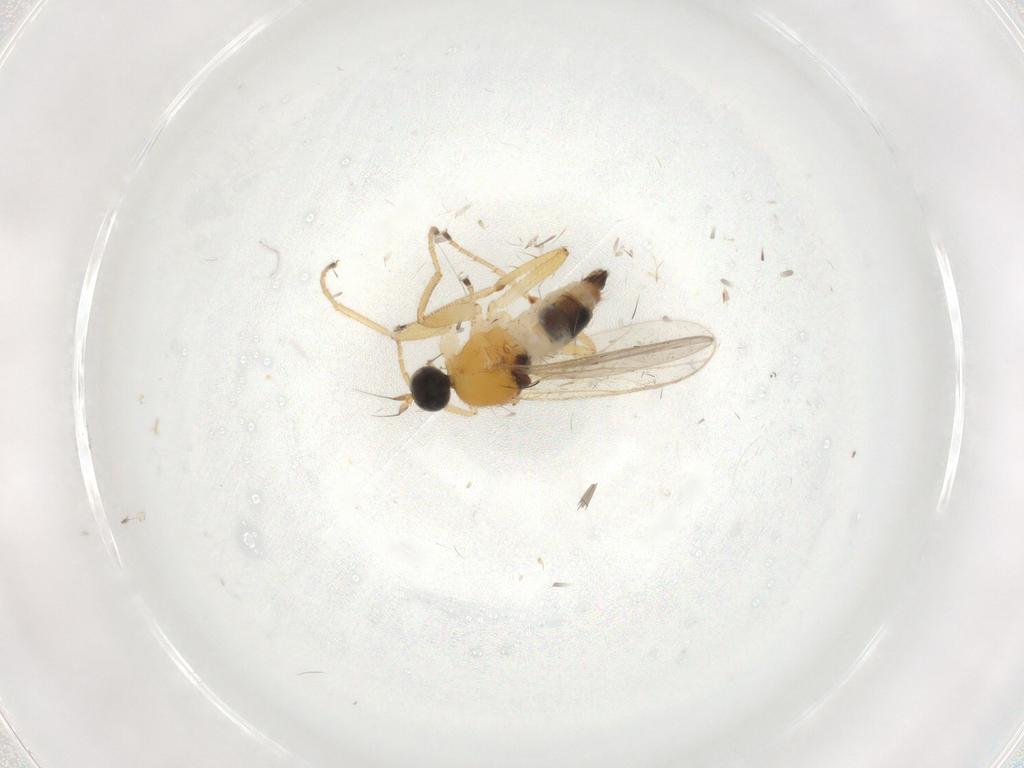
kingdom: Animalia
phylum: Arthropoda
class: Insecta
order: Diptera
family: Hybotidae
